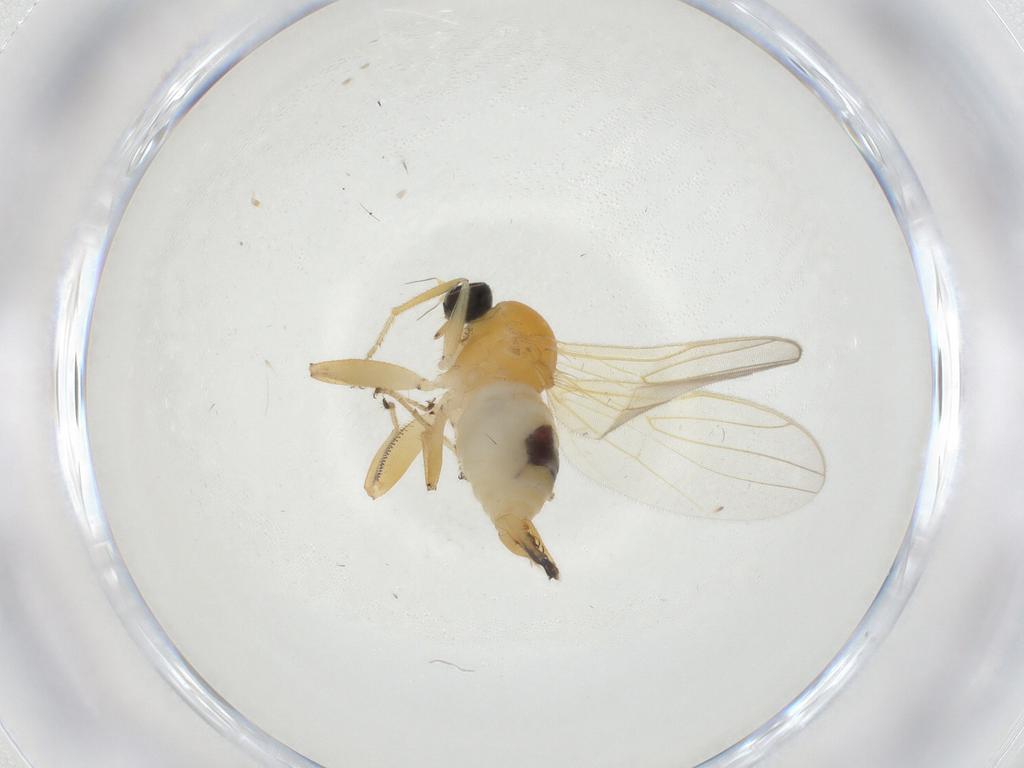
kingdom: Animalia
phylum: Arthropoda
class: Insecta
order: Diptera
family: Hybotidae
